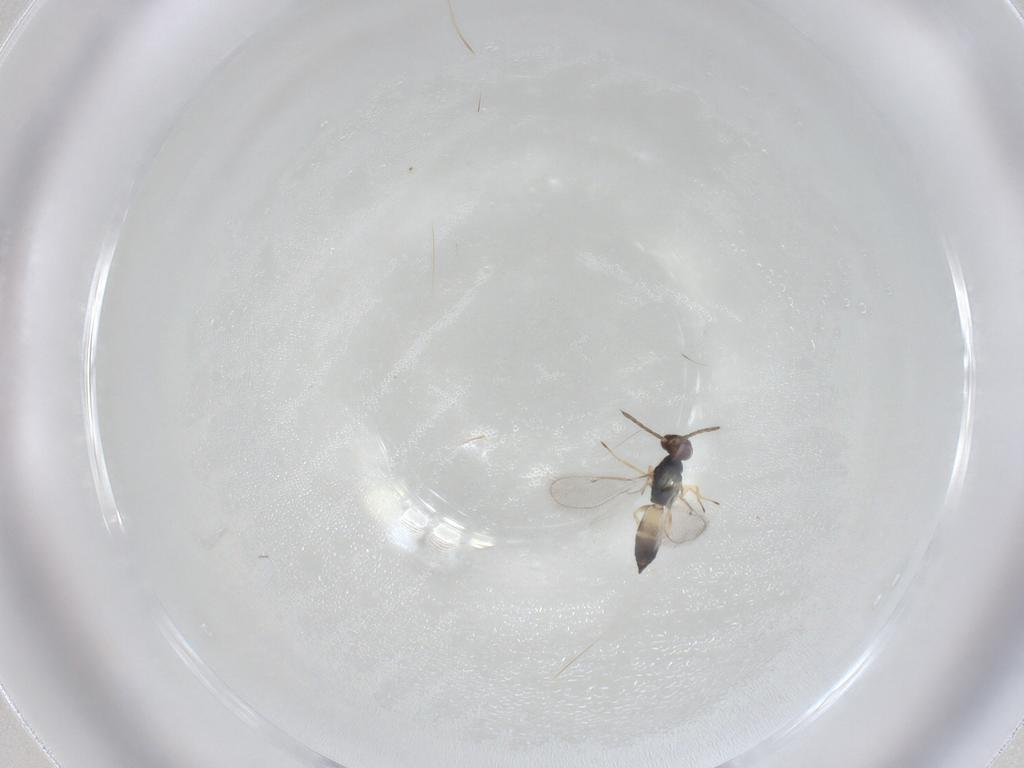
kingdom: Animalia
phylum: Arthropoda
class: Insecta
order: Hymenoptera
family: Eulophidae
